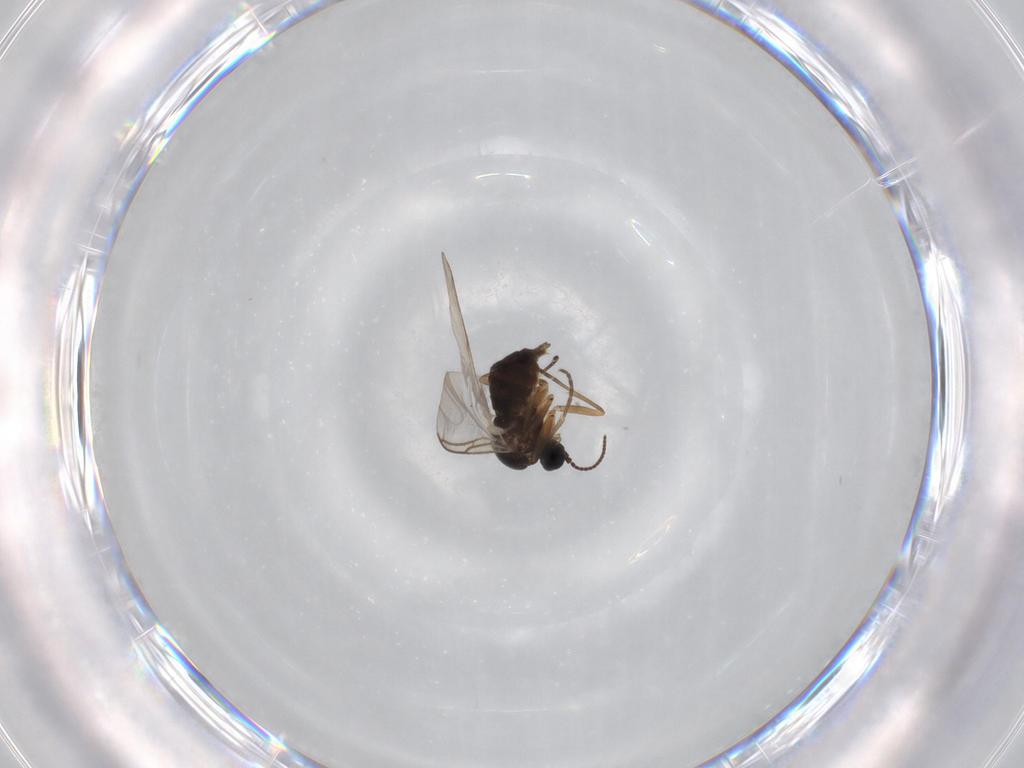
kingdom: Animalia
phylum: Arthropoda
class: Insecta
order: Diptera
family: Sciaridae
